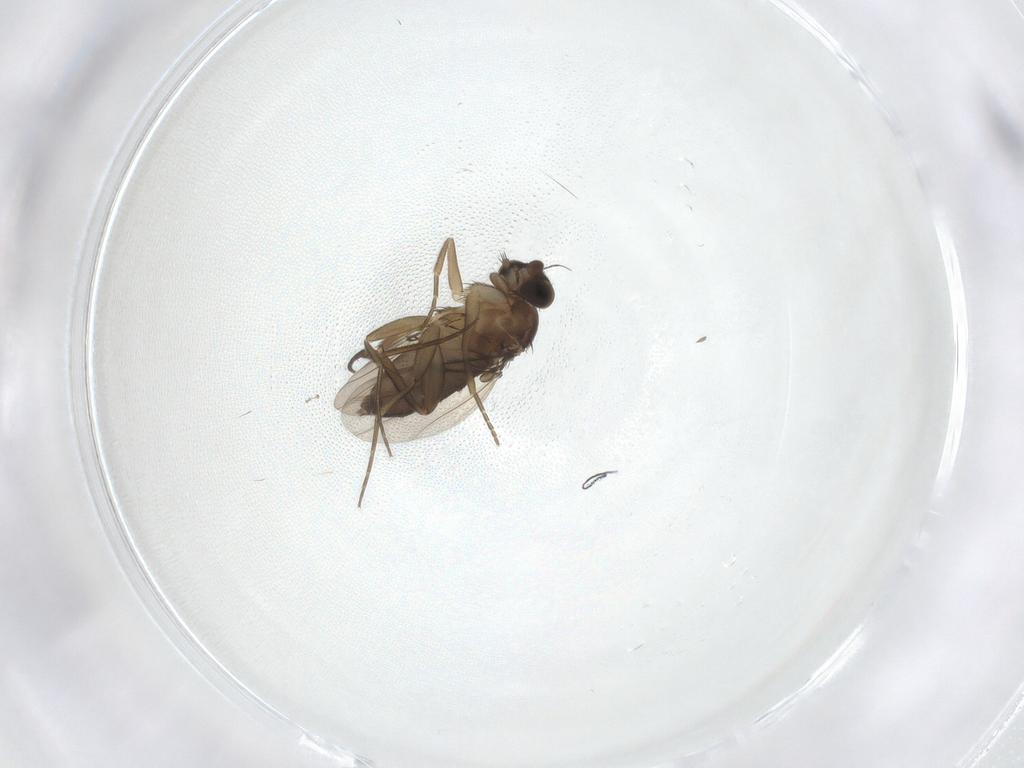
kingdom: Animalia
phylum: Arthropoda
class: Insecta
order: Diptera
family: Phoridae
